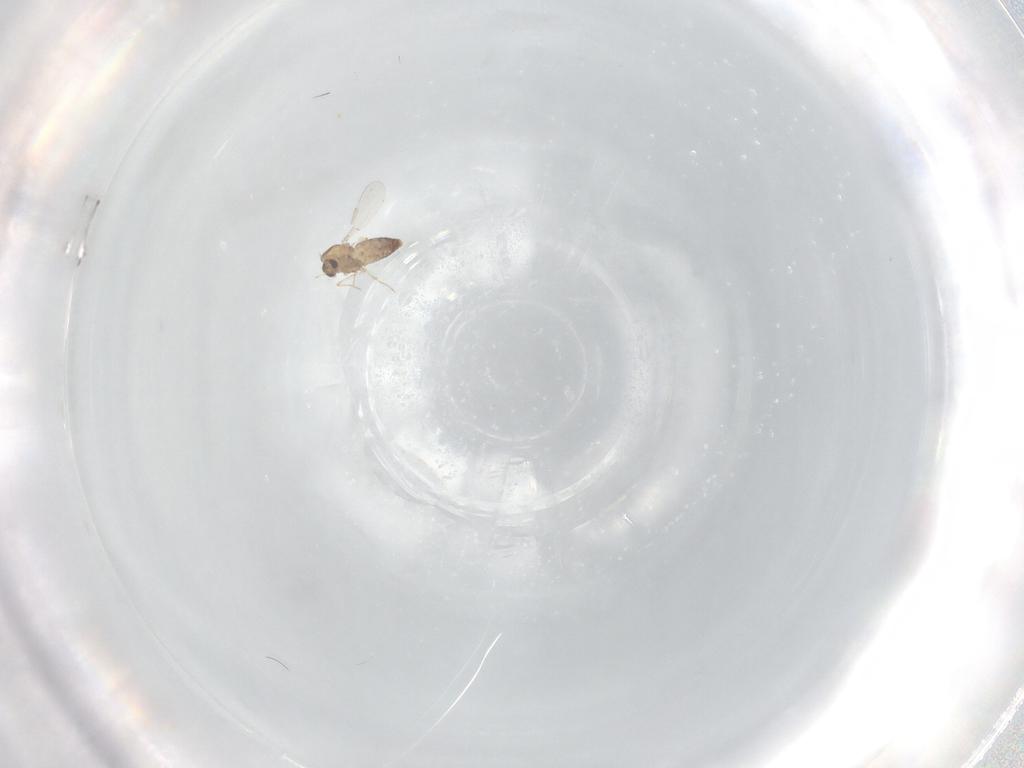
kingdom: Animalia
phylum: Arthropoda
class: Insecta
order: Diptera
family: Chironomidae
